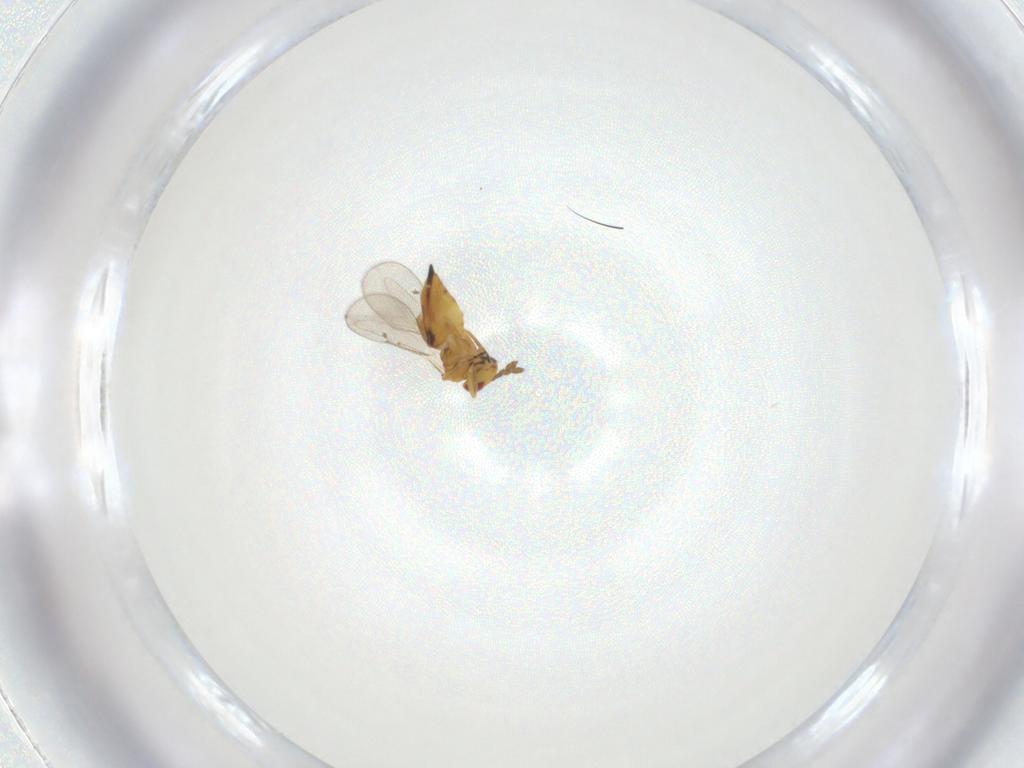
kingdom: Animalia
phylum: Arthropoda
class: Insecta
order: Hymenoptera
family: Eulophidae
